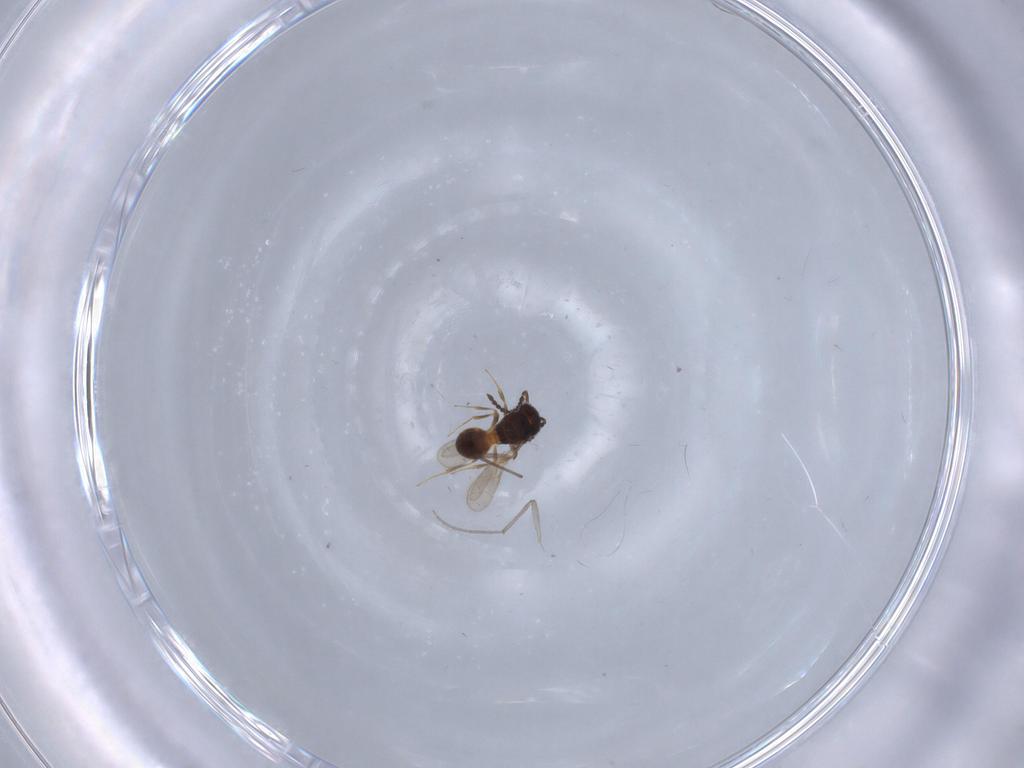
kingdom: Animalia
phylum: Arthropoda
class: Insecta
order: Hymenoptera
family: Scelionidae
